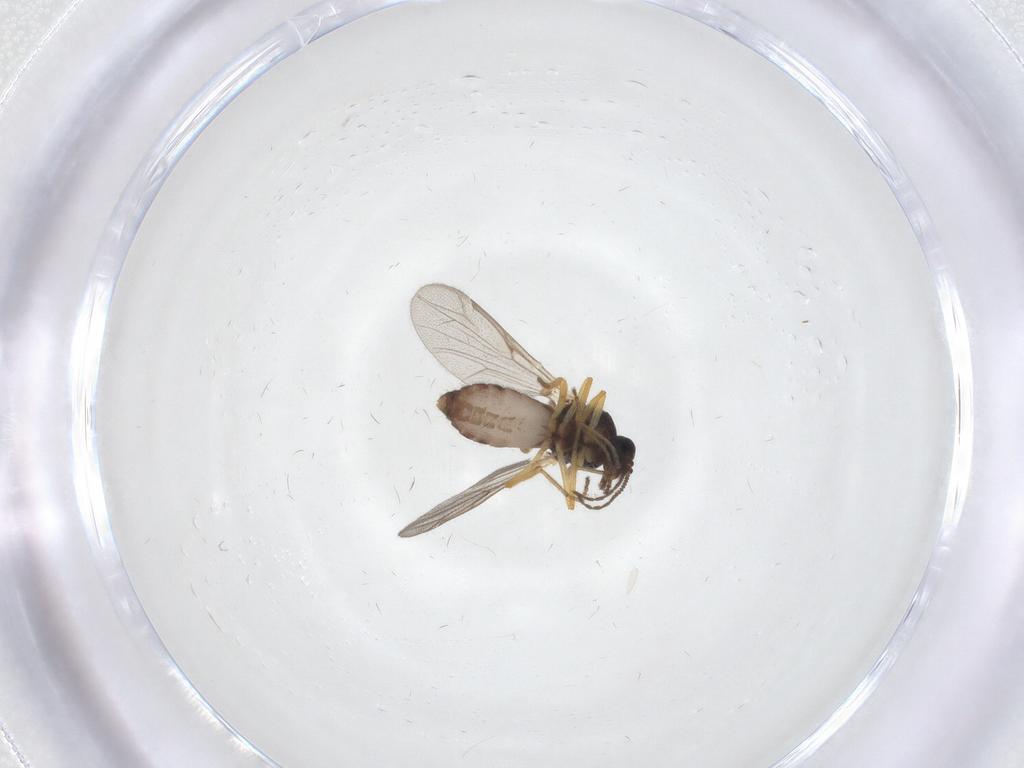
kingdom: Animalia
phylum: Arthropoda
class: Insecta
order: Diptera
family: Ceratopogonidae
